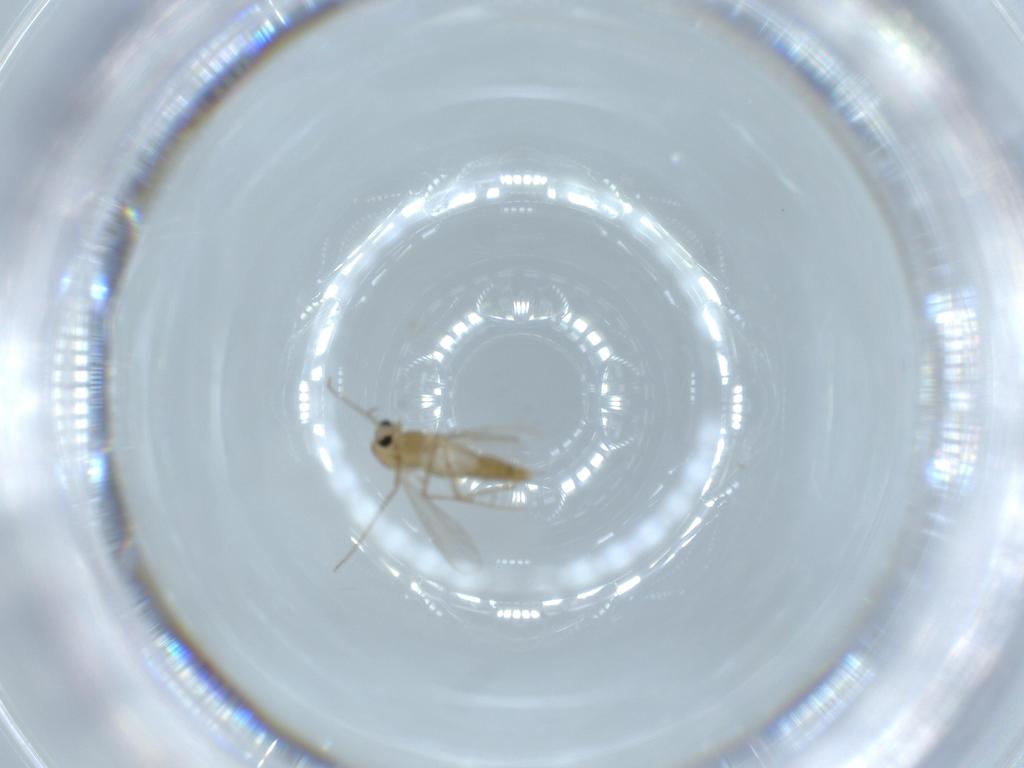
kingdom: Animalia
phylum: Arthropoda
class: Insecta
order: Diptera
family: Chironomidae
